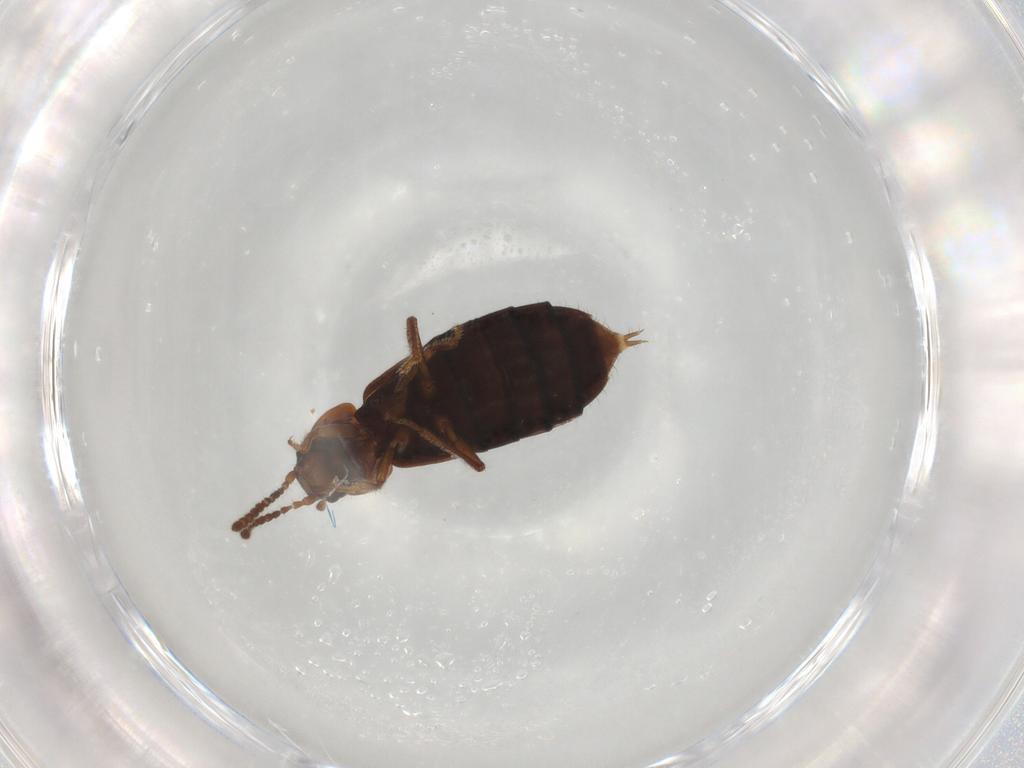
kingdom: Animalia
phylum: Arthropoda
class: Insecta
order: Coleoptera
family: Staphylinidae
